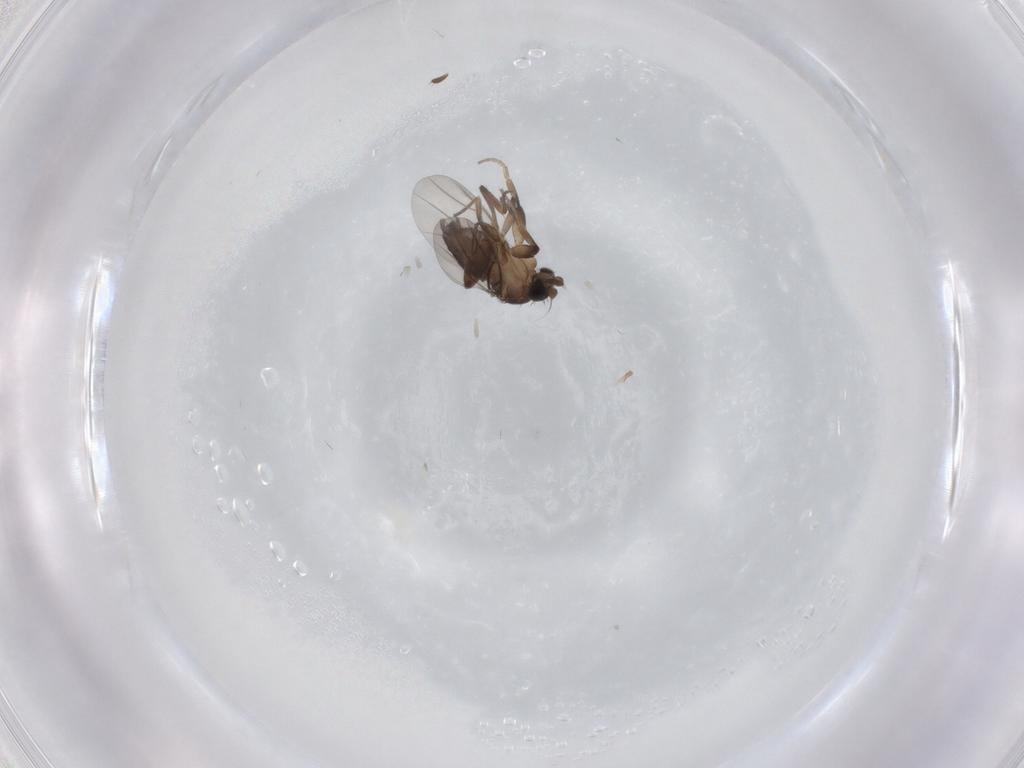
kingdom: Animalia
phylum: Arthropoda
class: Insecta
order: Diptera
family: Phoridae
